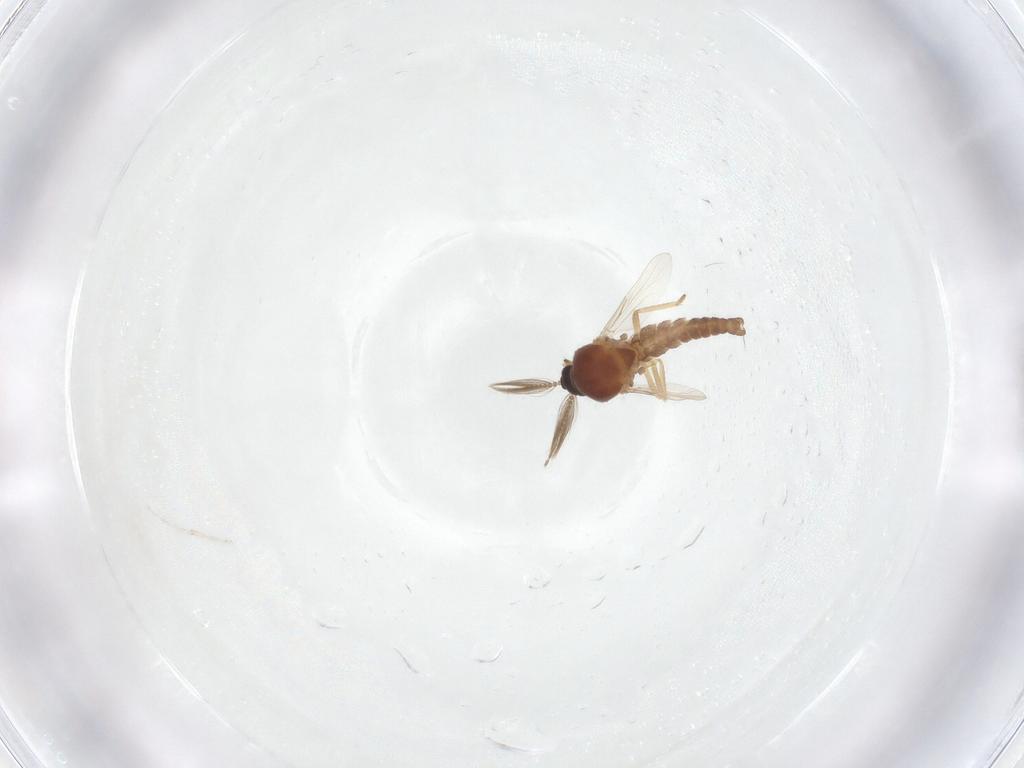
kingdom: Animalia
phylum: Arthropoda
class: Insecta
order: Diptera
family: Ceratopogonidae
